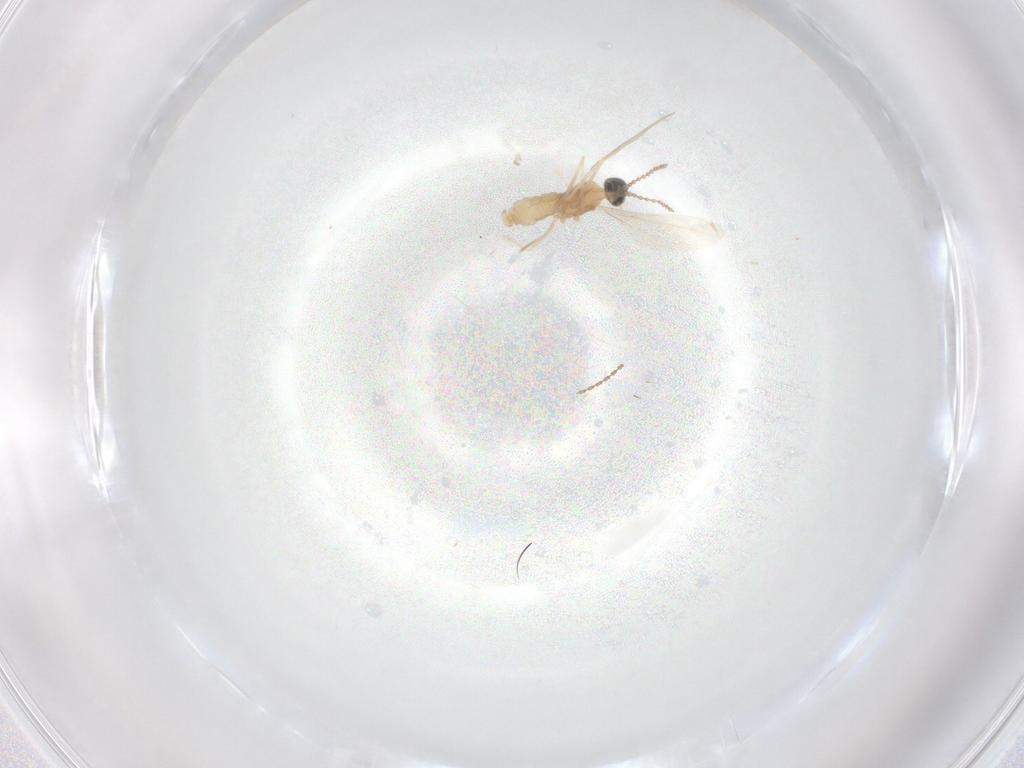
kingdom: Animalia
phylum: Arthropoda
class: Insecta
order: Diptera
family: Cecidomyiidae
